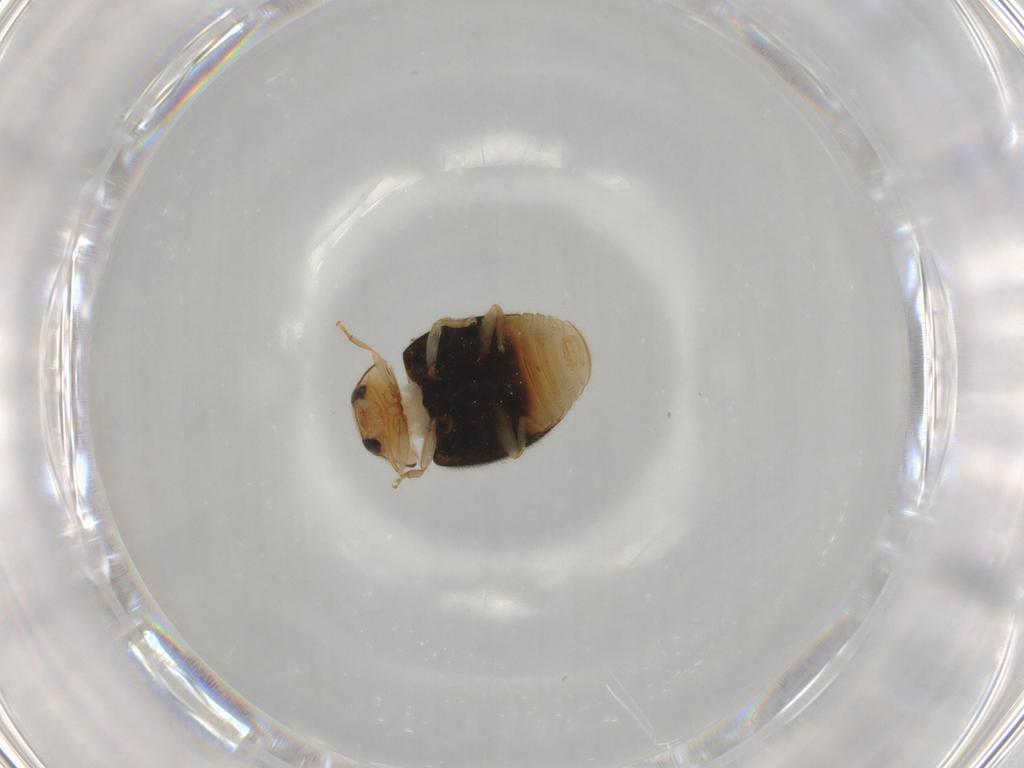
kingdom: Animalia
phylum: Arthropoda
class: Insecta
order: Coleoptera
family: Coccinellidae
